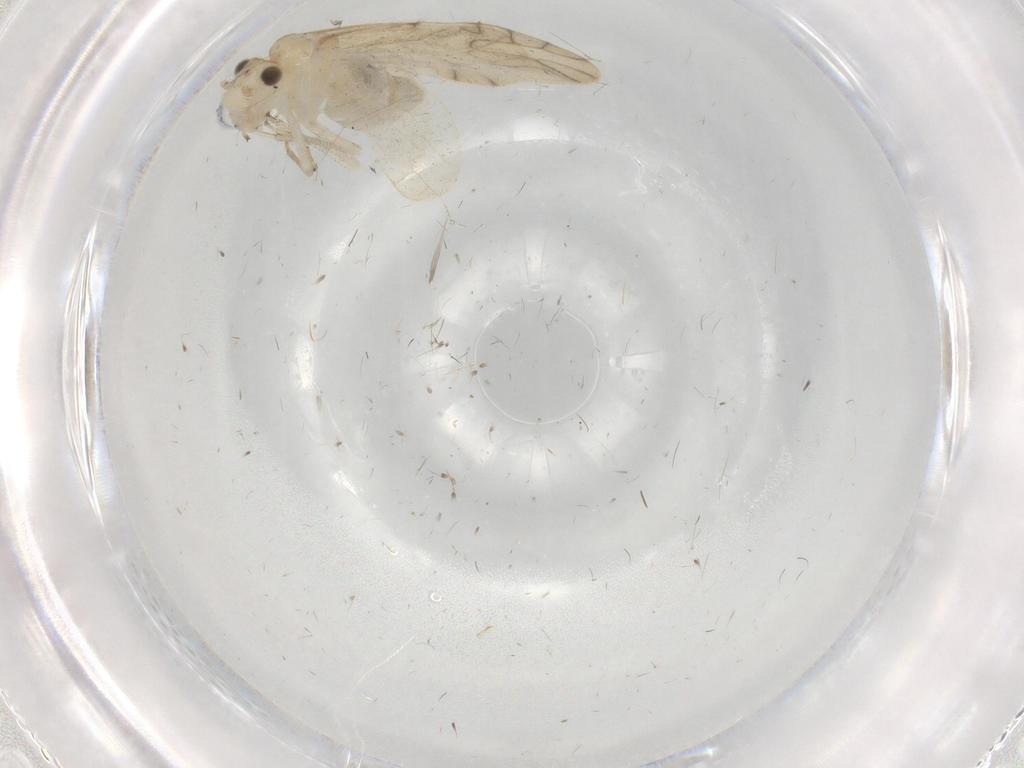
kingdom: Animalia
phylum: Arthropoda
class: Insecta
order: Psocodea
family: Caeciliusidae
